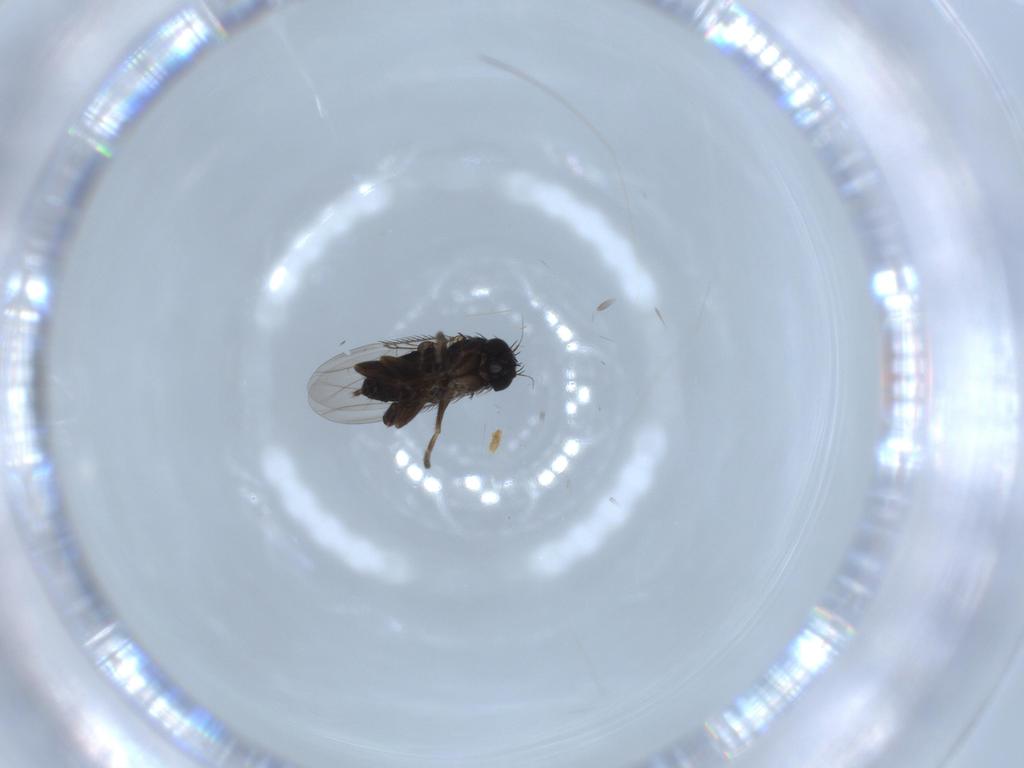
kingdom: Animalia
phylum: Arthropoda
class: Insecta
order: Diptera
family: Phoridae
